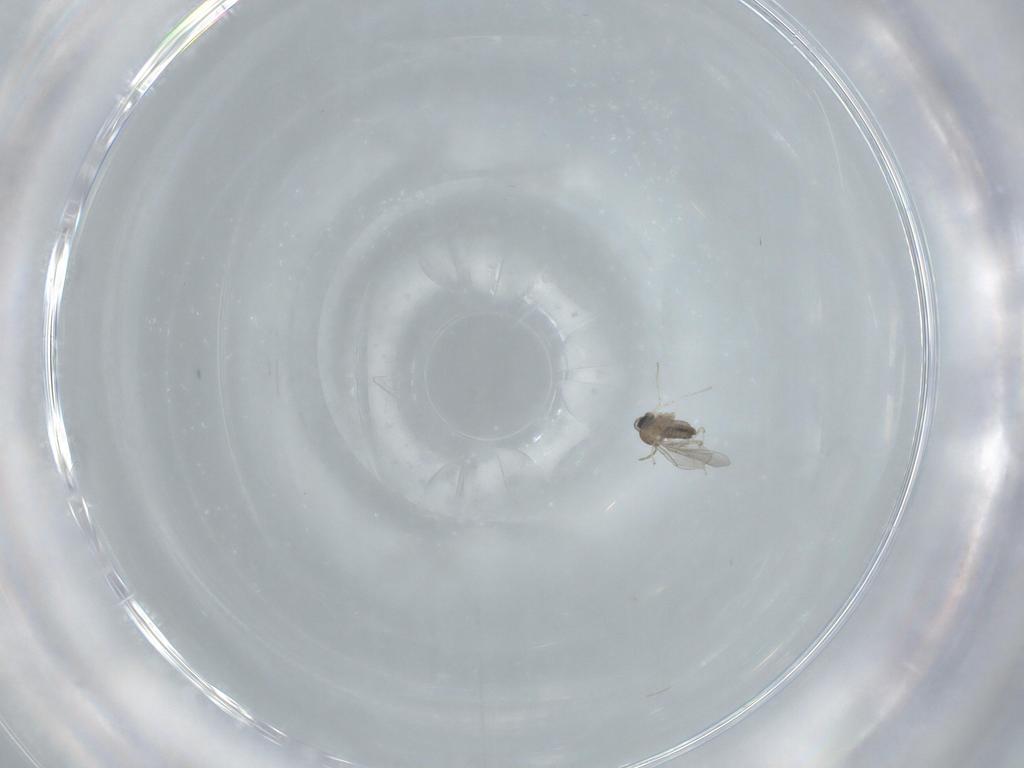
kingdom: Animalia
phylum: Arthropoda
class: Insecta
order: Diptera
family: Cecidomyiidae
